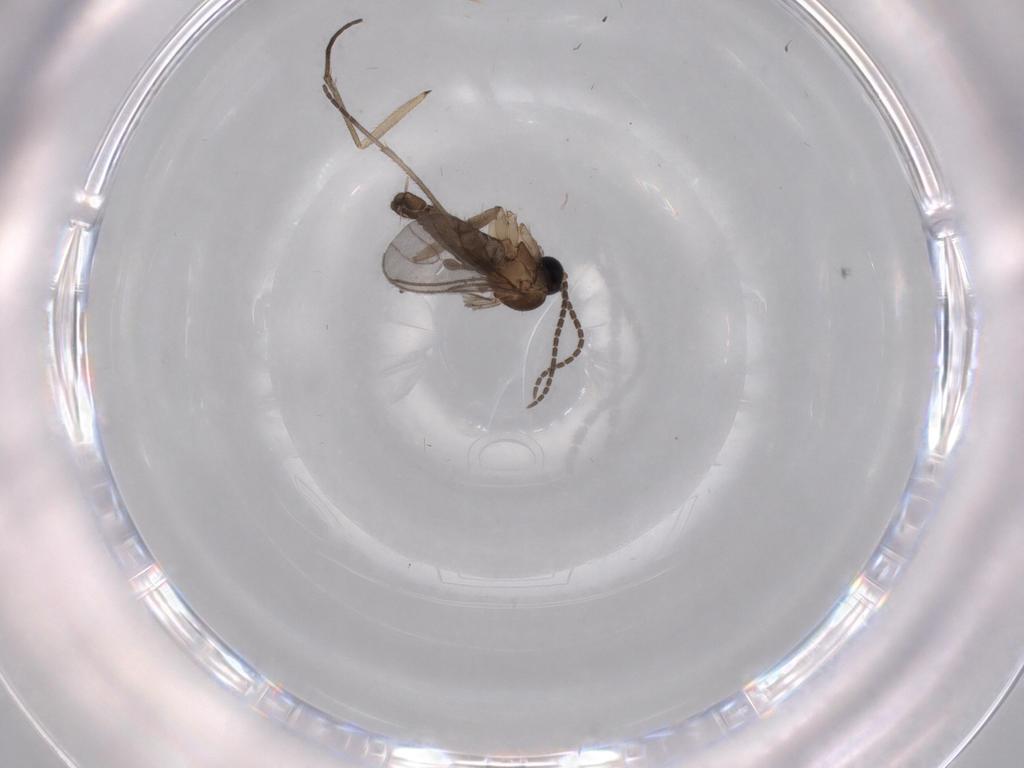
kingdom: Animalia
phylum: Arthropoda
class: Insecta
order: Diptera
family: Sciaridae
